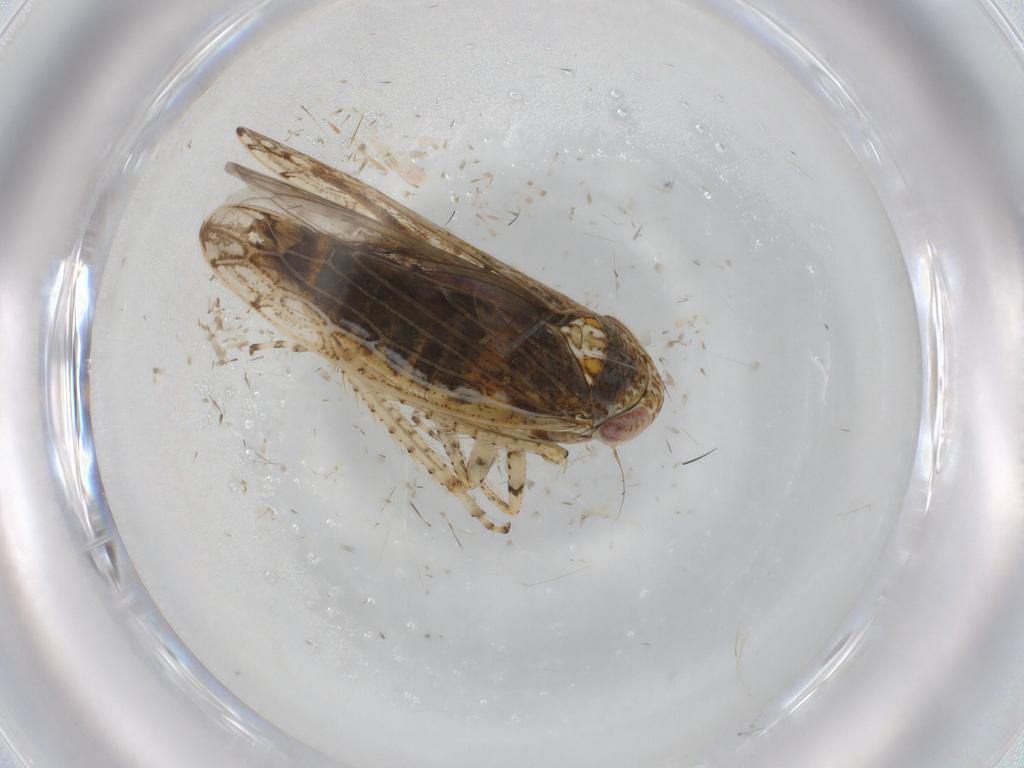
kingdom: Animalia
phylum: Arthropoda
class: Insecta
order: Hemiptera
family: Cicadellidae
